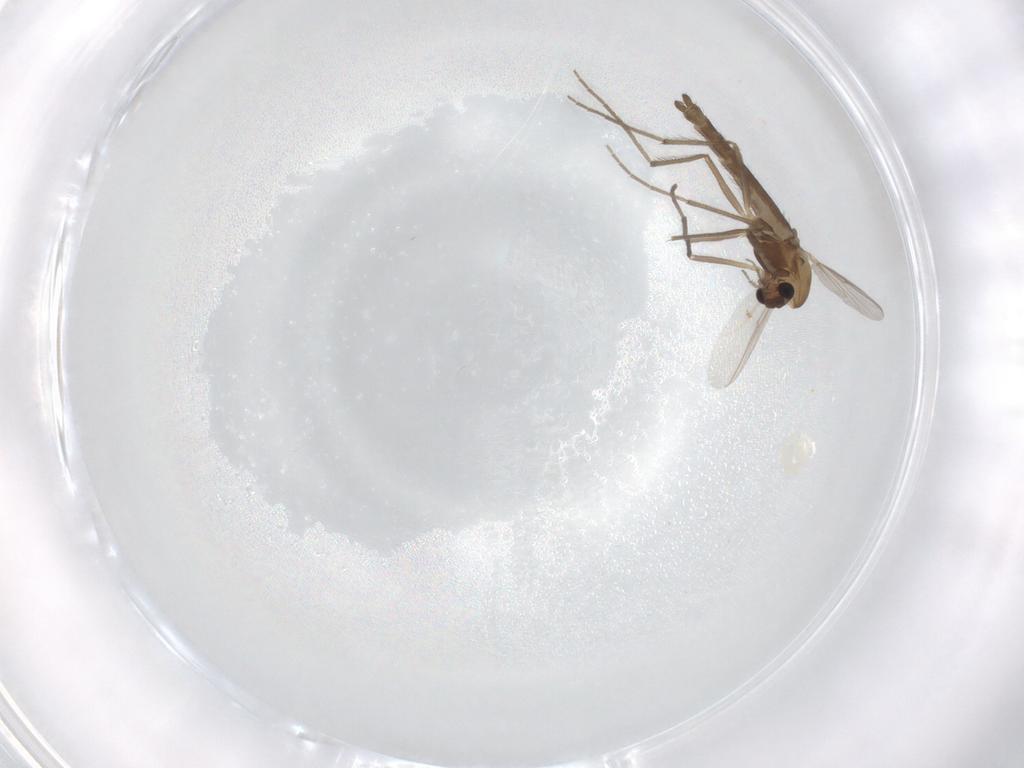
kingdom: Animalia
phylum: Arthropoda
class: Insecta
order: Diptera
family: Chironomidae
